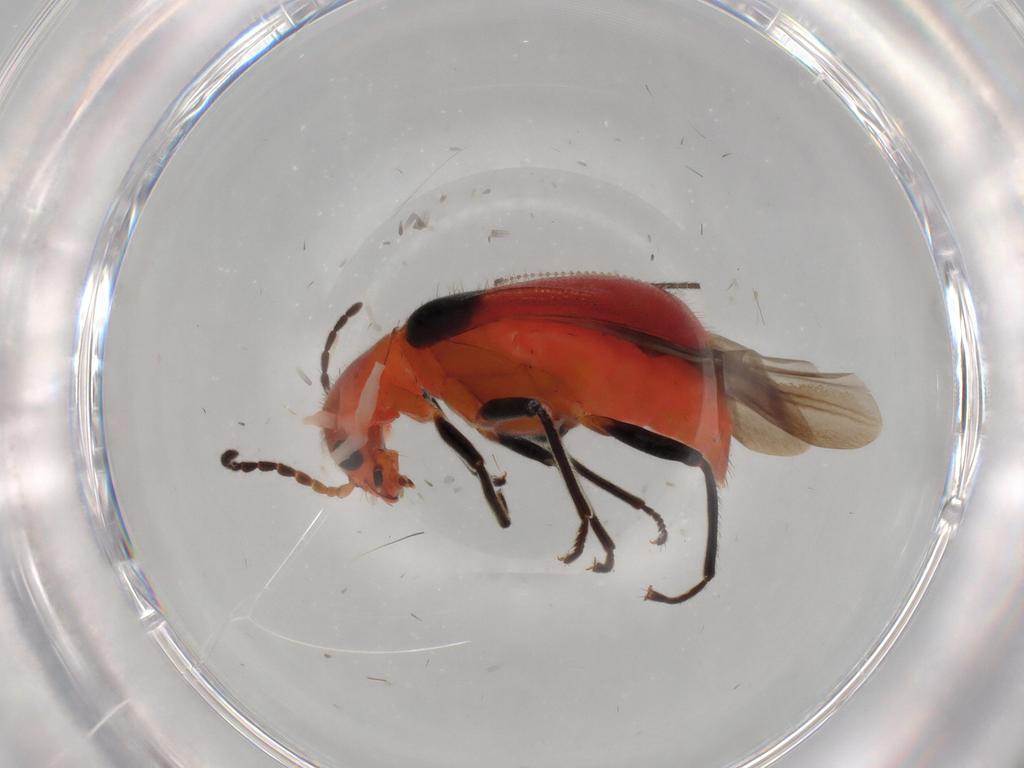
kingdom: Animalia
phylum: Arthropoda
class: Insecta
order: Coleoptera
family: Melyridae
